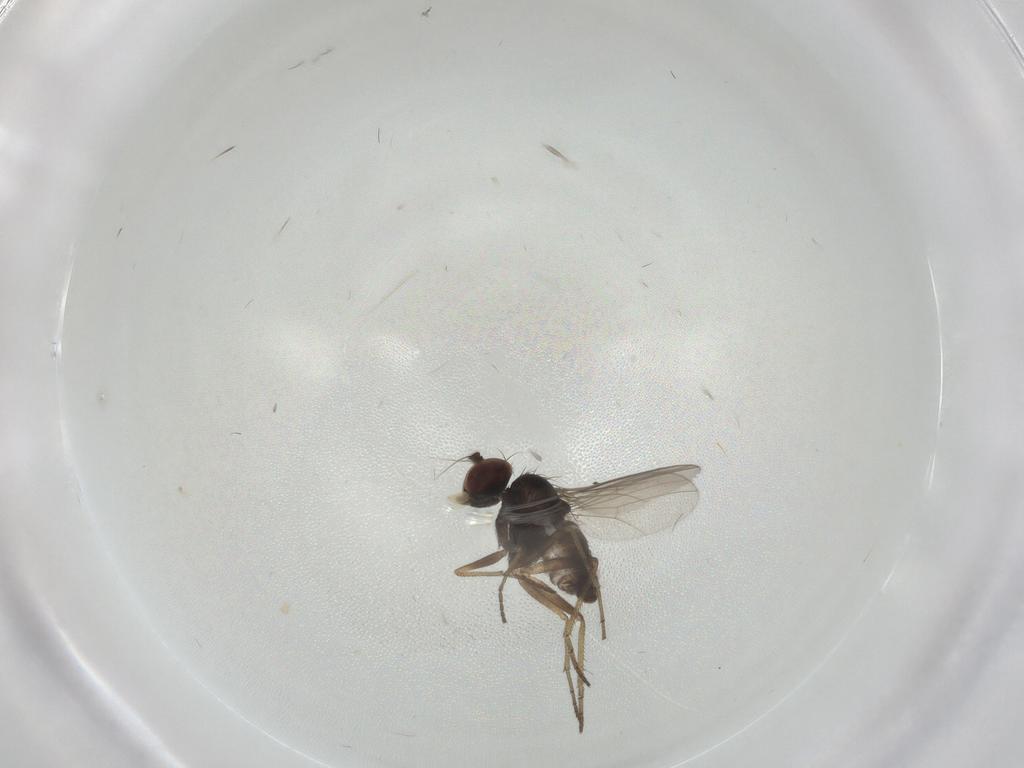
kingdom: Animalia
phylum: Arthropoda
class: Insecta
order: Diptera
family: Dolichopodidae
